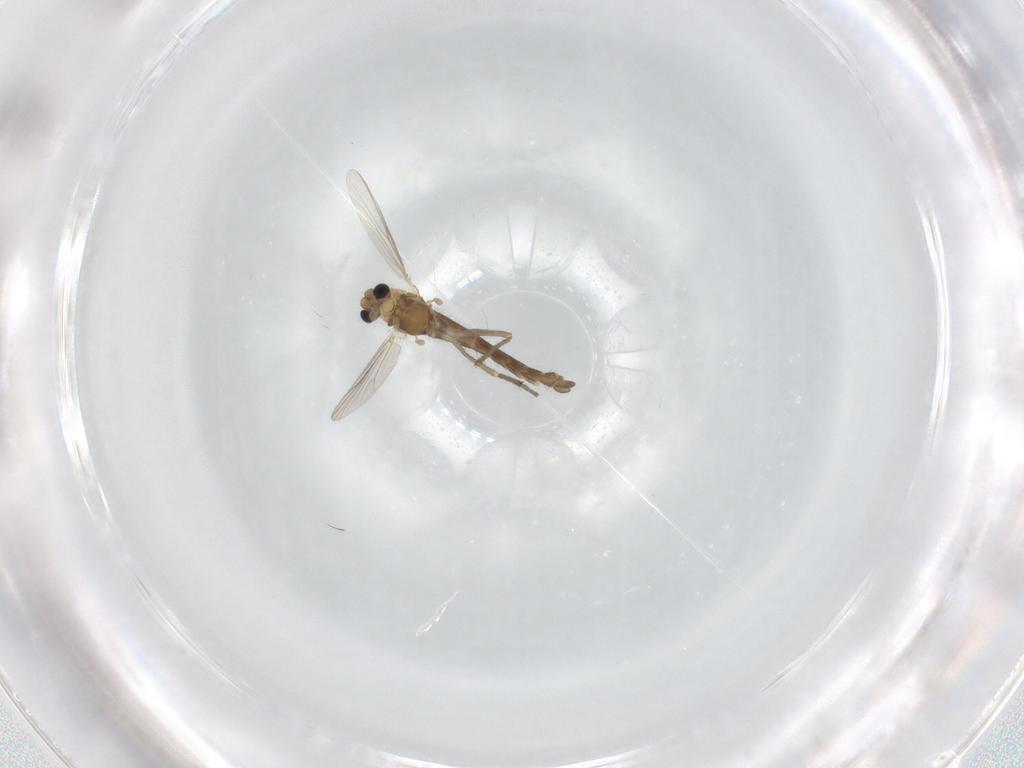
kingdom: Animalia
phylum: Arthropoda
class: Insecta
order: Diptera
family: Chironomidae
